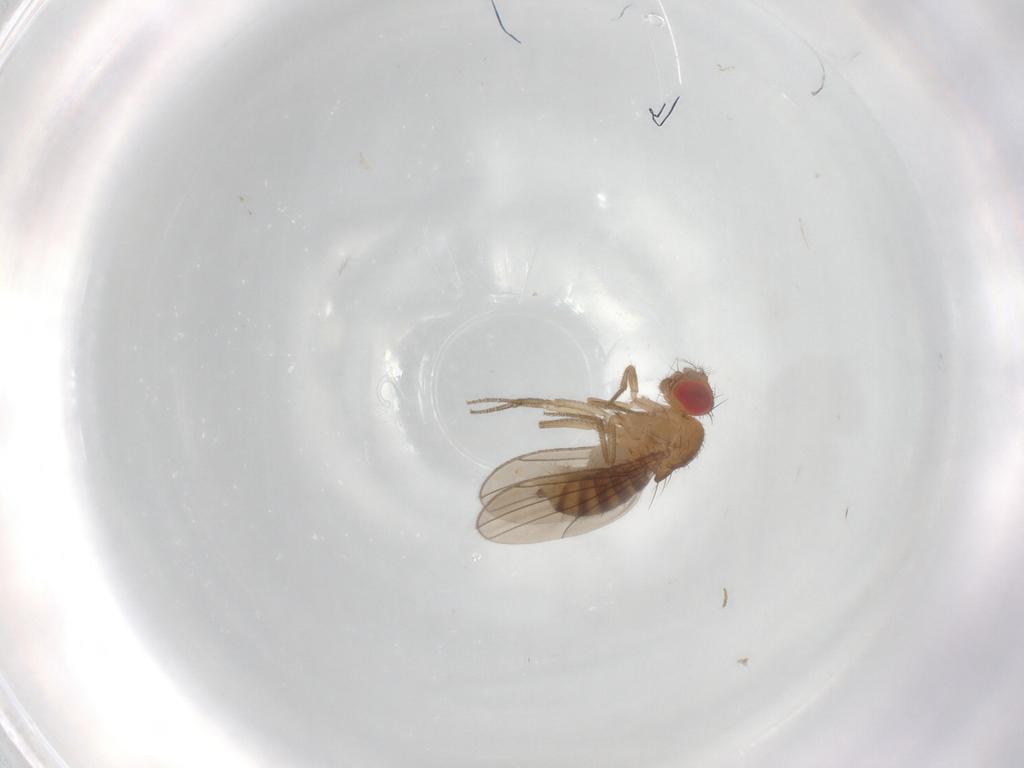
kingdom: Animalia
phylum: Arthropoda
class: Insecta
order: Diptera
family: Drosophilidae
